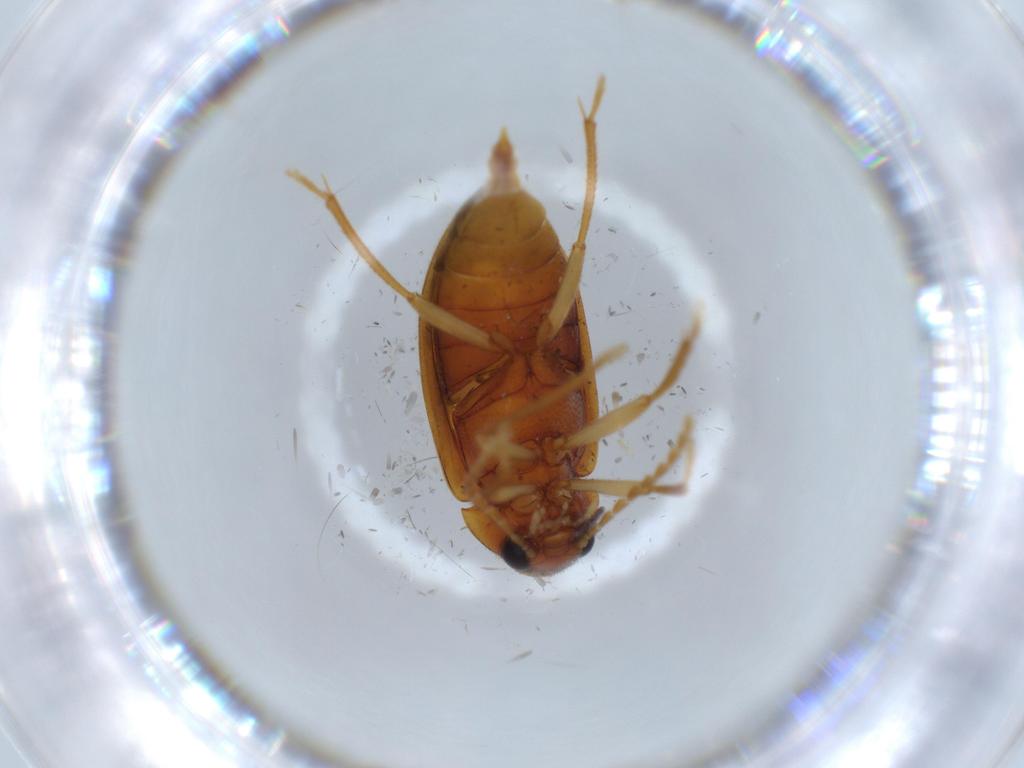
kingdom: Animalia
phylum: Arthropoda
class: Insecta
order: Coleoptera
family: Ptilodactylidae
